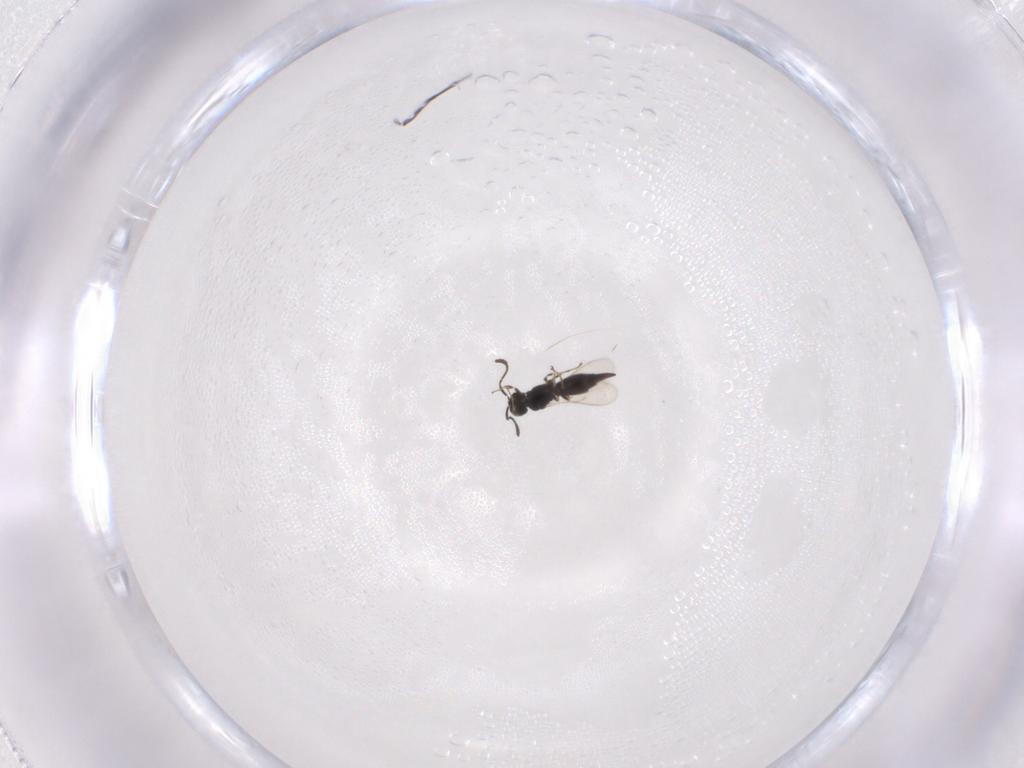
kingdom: Animalia
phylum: Arthropoda
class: Insecta
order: Hymenoptera
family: Scelionidae
